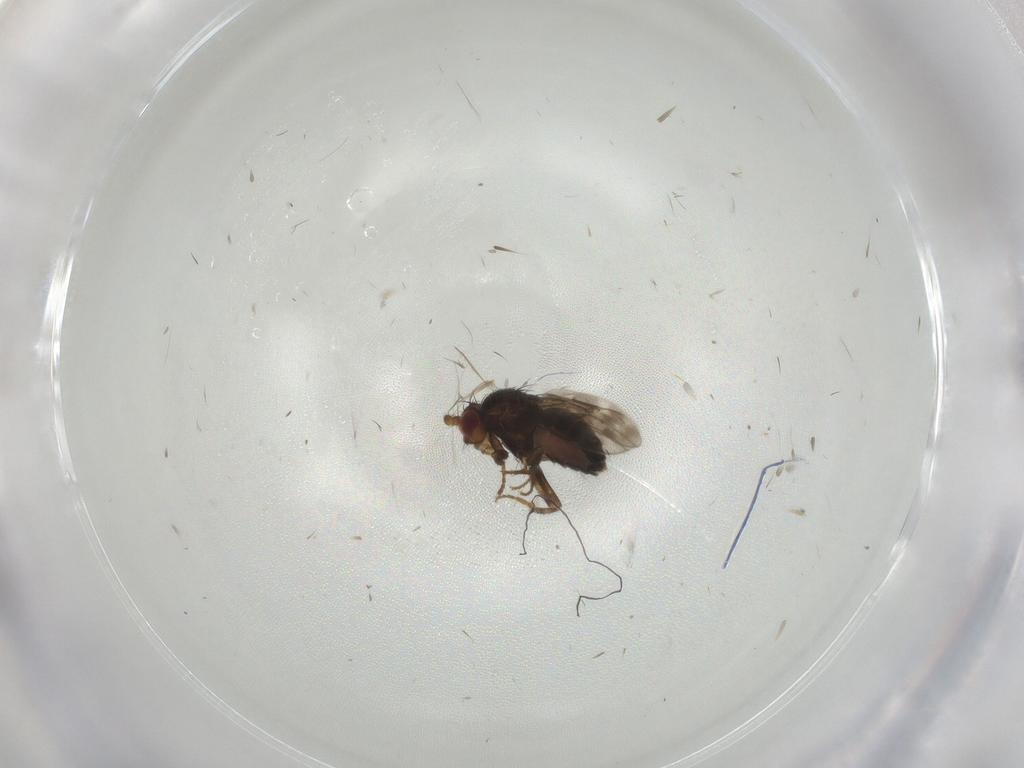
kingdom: Animalia
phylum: Arthropoda
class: Insecta
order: Diptera
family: Sphaeroceridae
